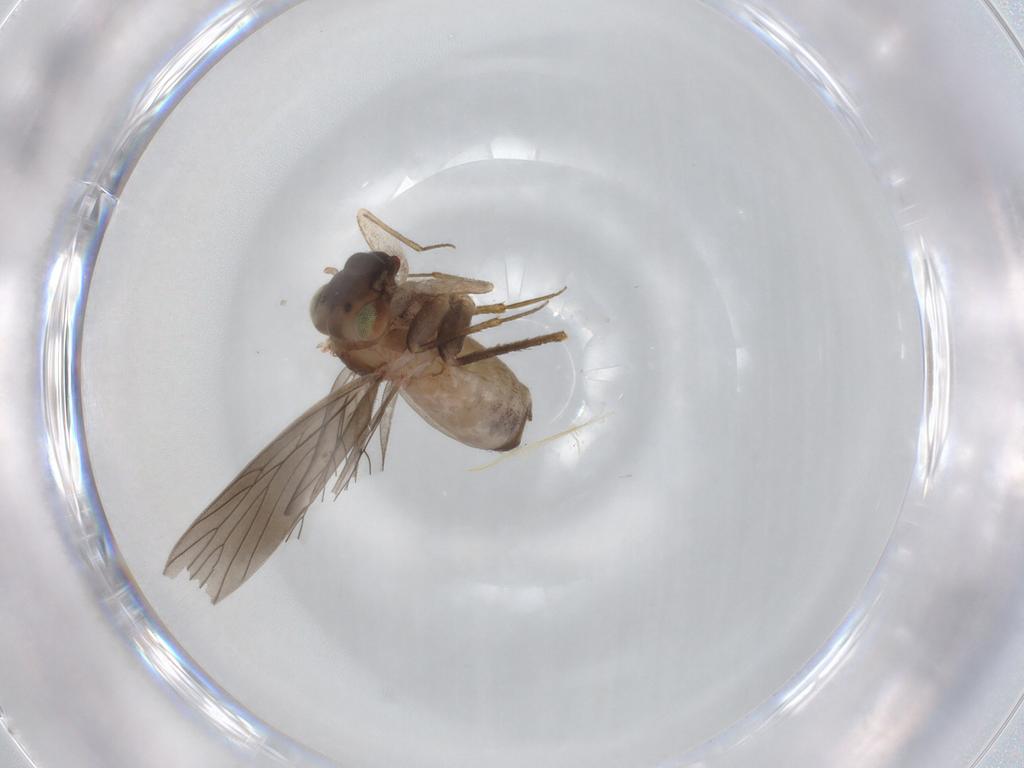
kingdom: Animalia
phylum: Arthropoda
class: Insecta
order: Psocodea
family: Lepidopsocidae
